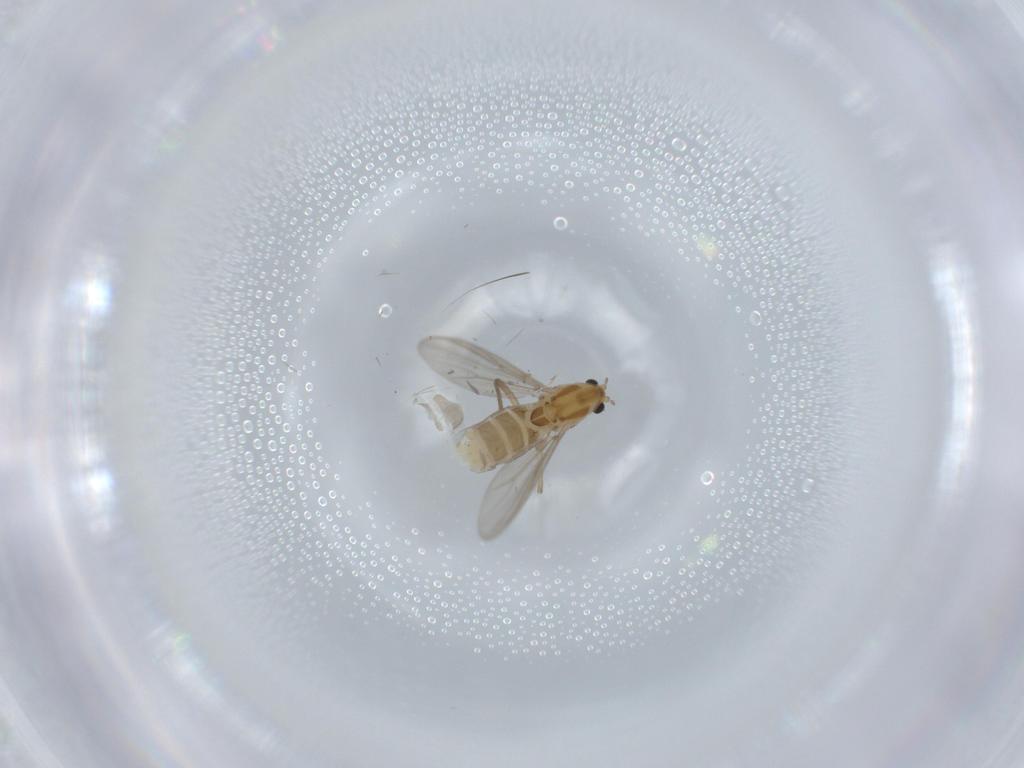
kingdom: Animalia
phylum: Arthropoda
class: Insecta
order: Diptera
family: Chironomidae
